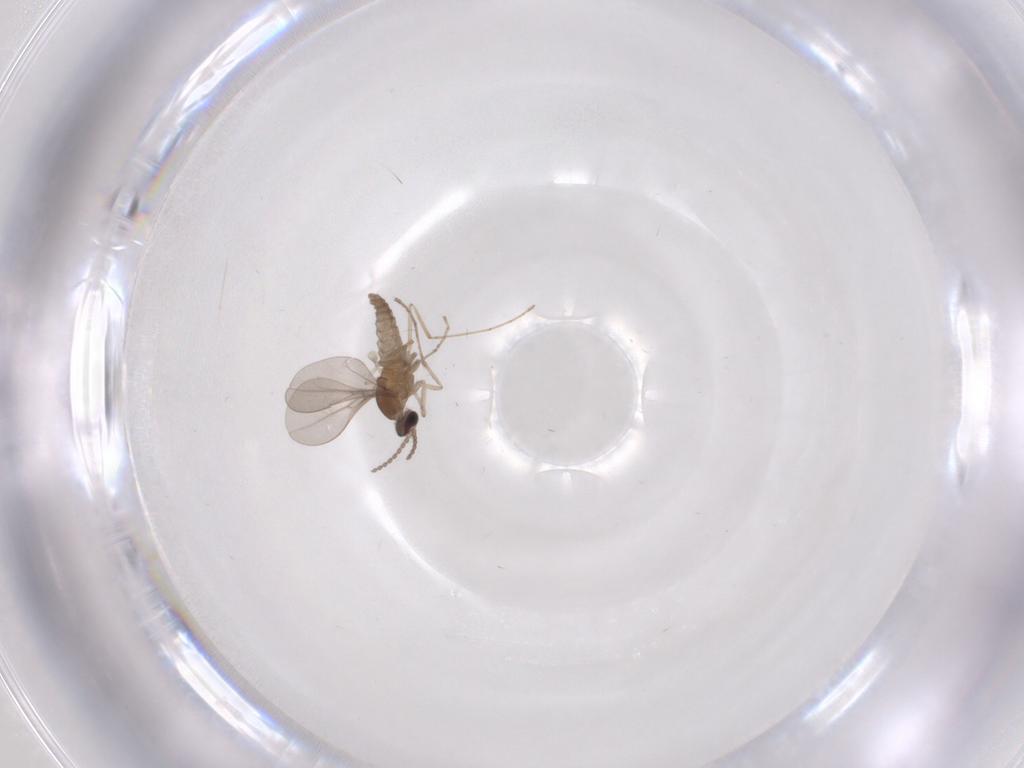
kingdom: Animalia
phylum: Arthropoda
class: Insecta
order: Diptera
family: Cecidomyiidae
